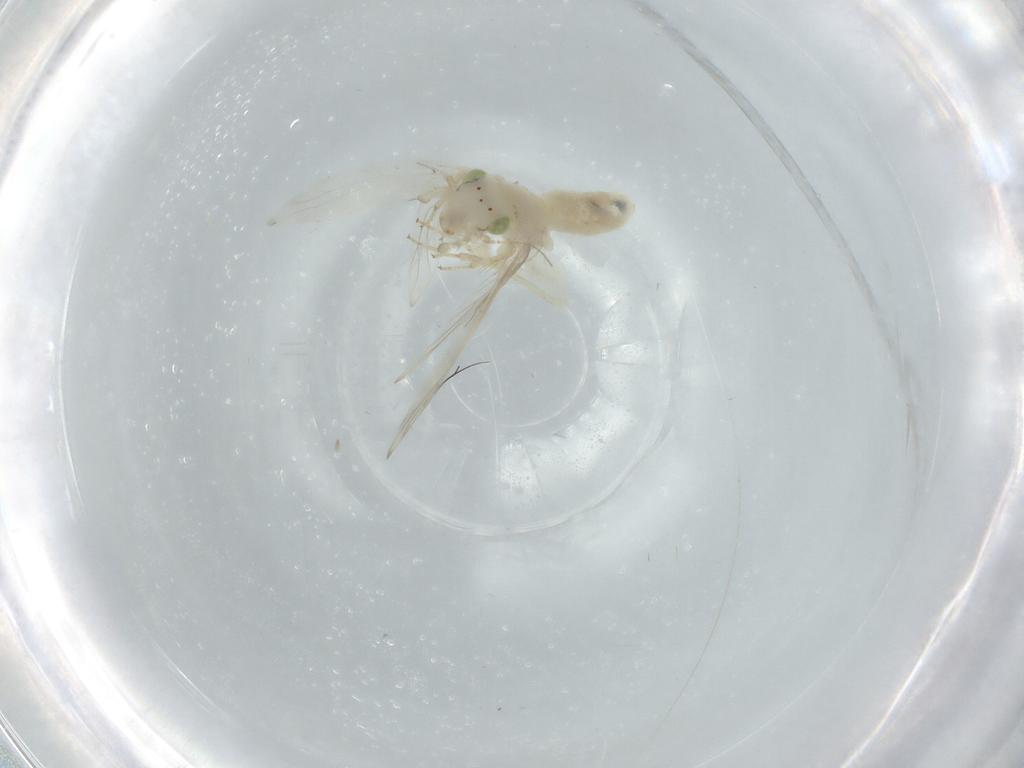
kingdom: Animalia
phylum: Arthropoda
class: Insecta
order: Psocodea
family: Lepidopsocidae
